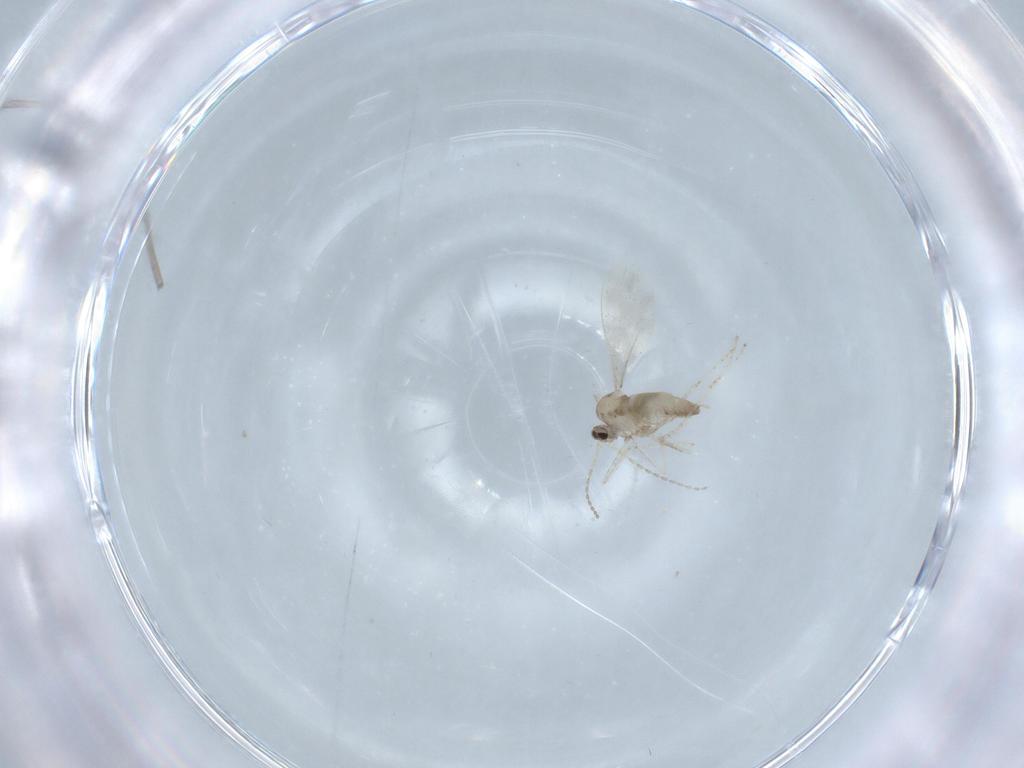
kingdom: Animalia
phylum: Arthropoda
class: Insecta
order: Diptera
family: Cecidomyiidae
